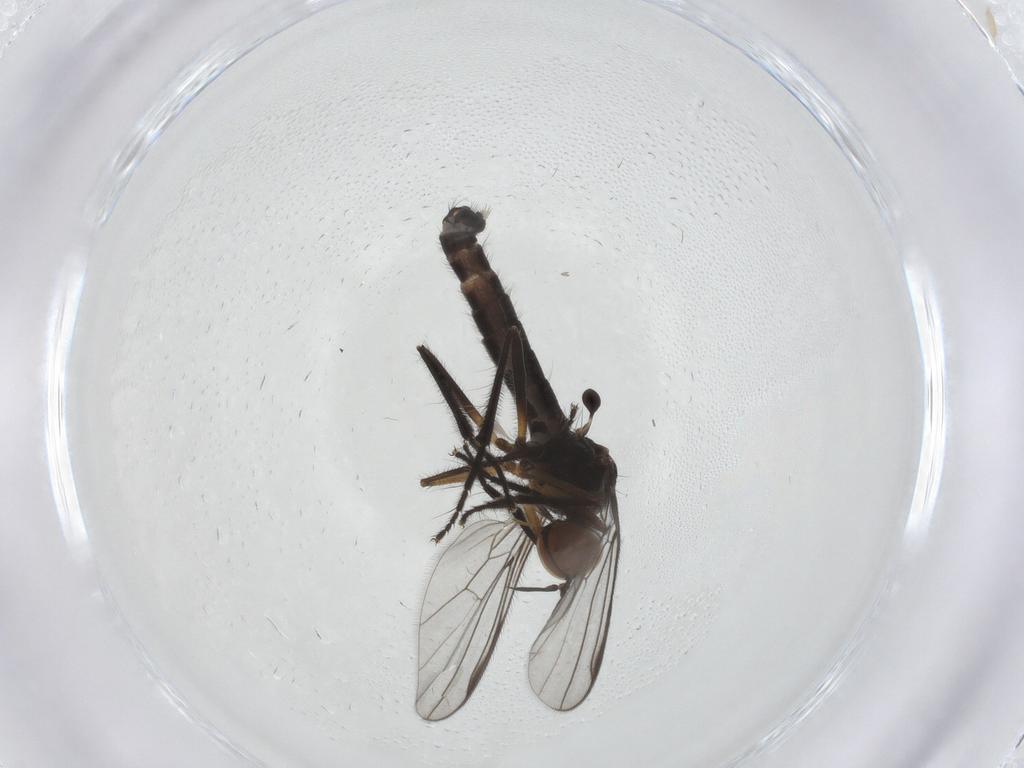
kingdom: Animalia
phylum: Arthropoda
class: Insecta
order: Diptera
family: Empididae
